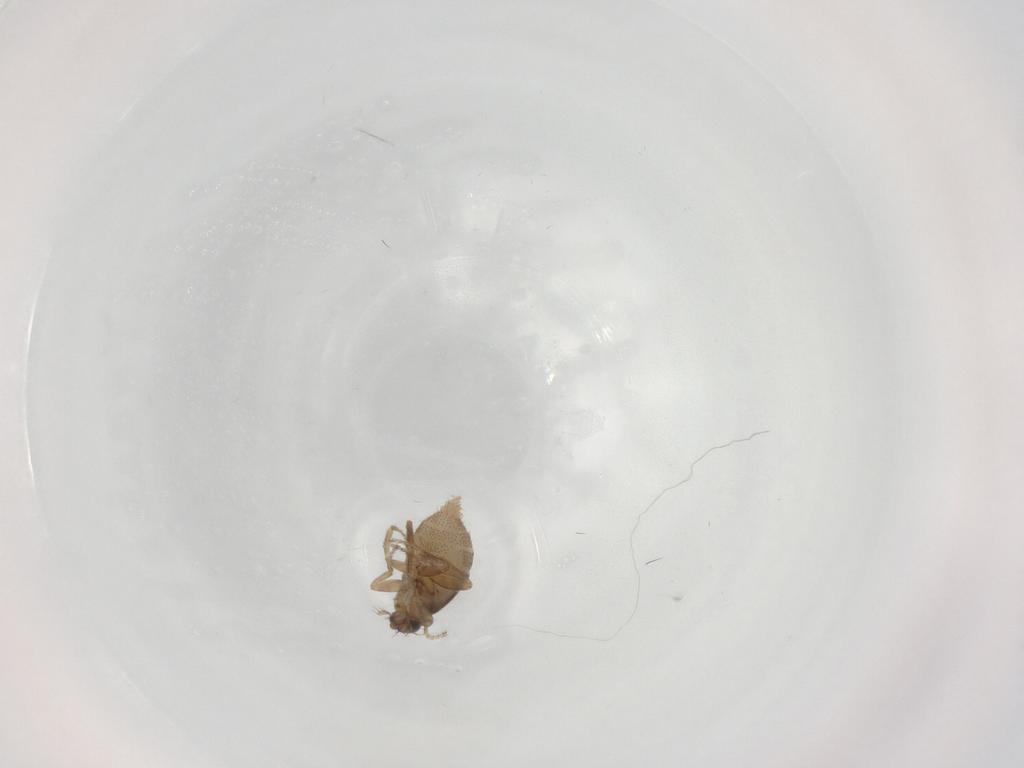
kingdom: Animalia
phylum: Arthropoda
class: Insecta
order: Diptera
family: Cecidomyiidae
